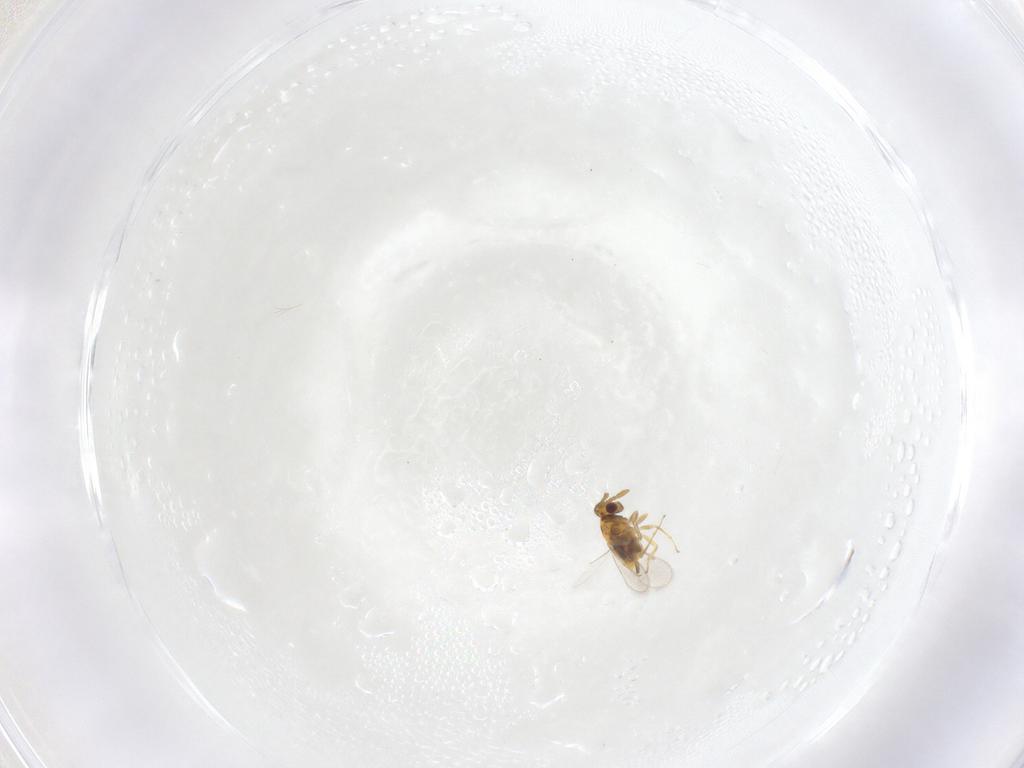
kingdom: Animalia
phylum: Arthropoda
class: Insecta
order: Hymenoptera
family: Aphelinidae
